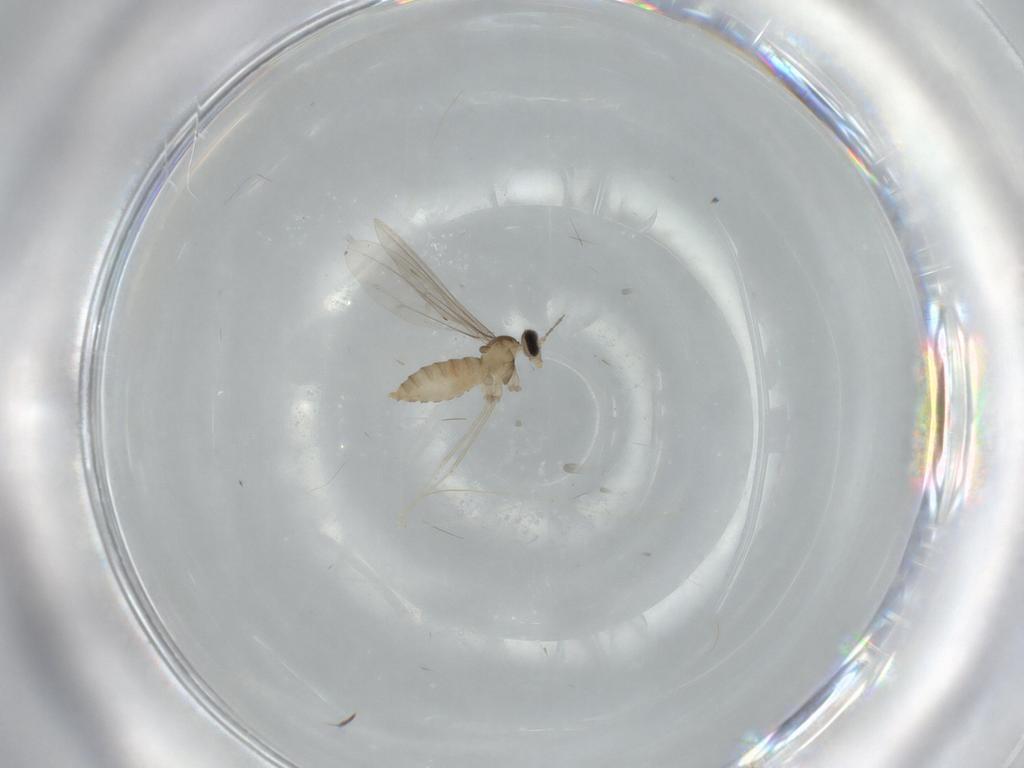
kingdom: Animalia
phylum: Arthropoda
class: Insecta
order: Diptera
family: Cecidomyiidae
